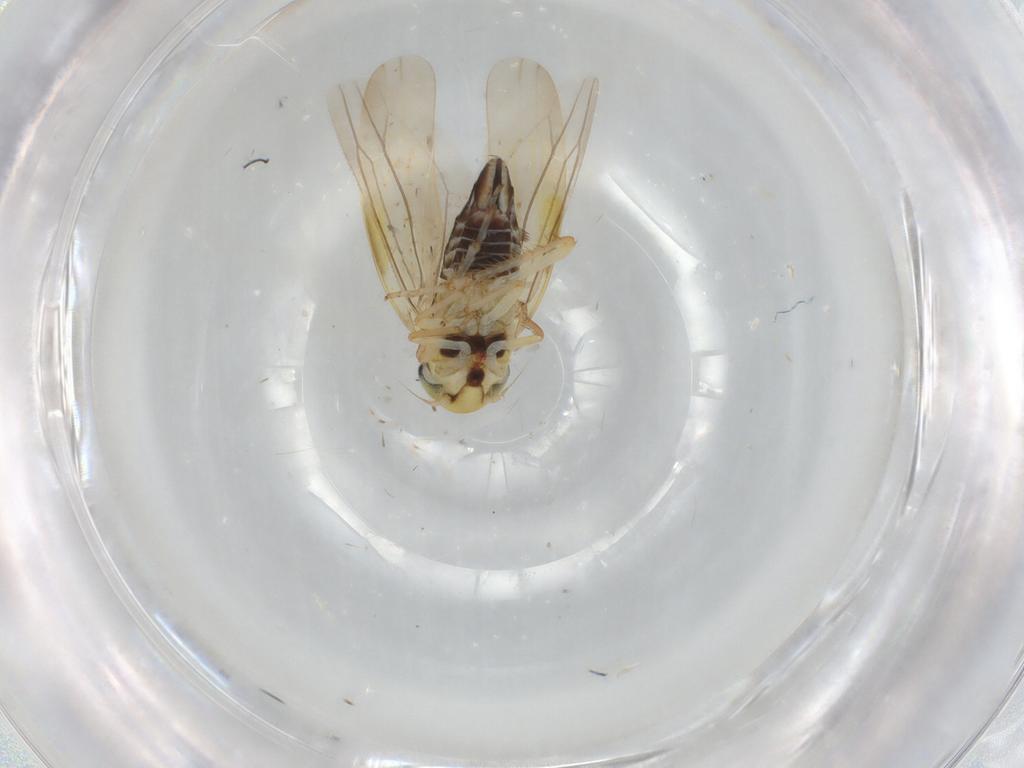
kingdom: Animalia
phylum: Arthropoda
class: Insecta
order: Hemiptera
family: Cicadellidae
